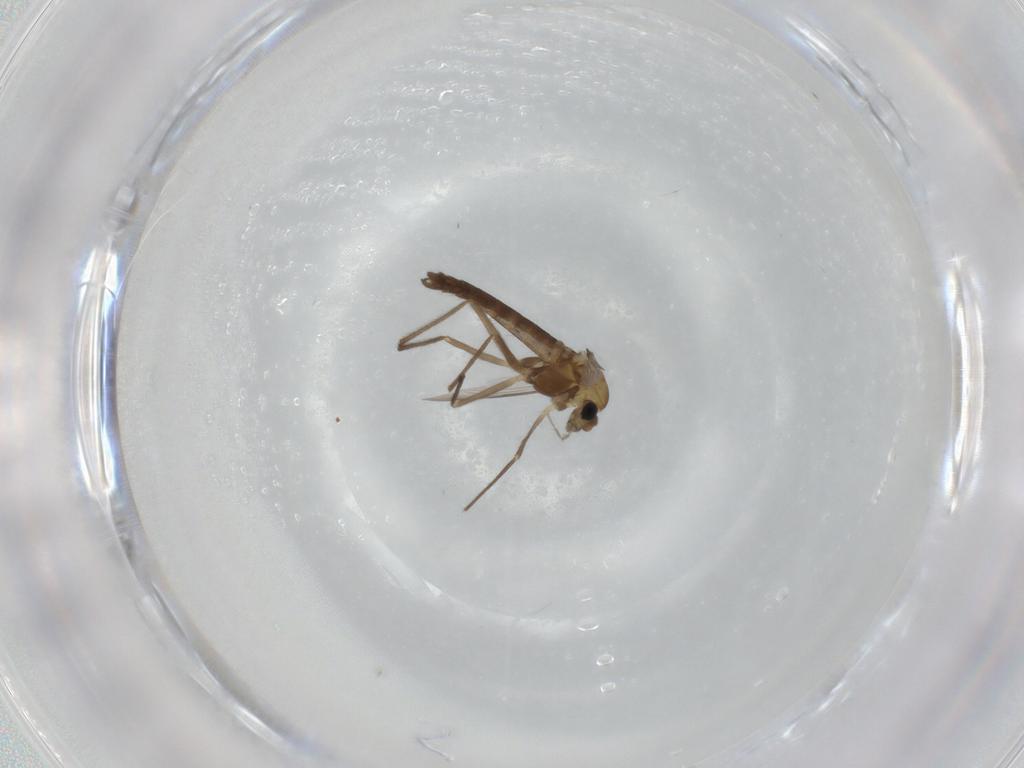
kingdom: Animalia
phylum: Arthropoda
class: Insecta
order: Diptera
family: Chironomidae
